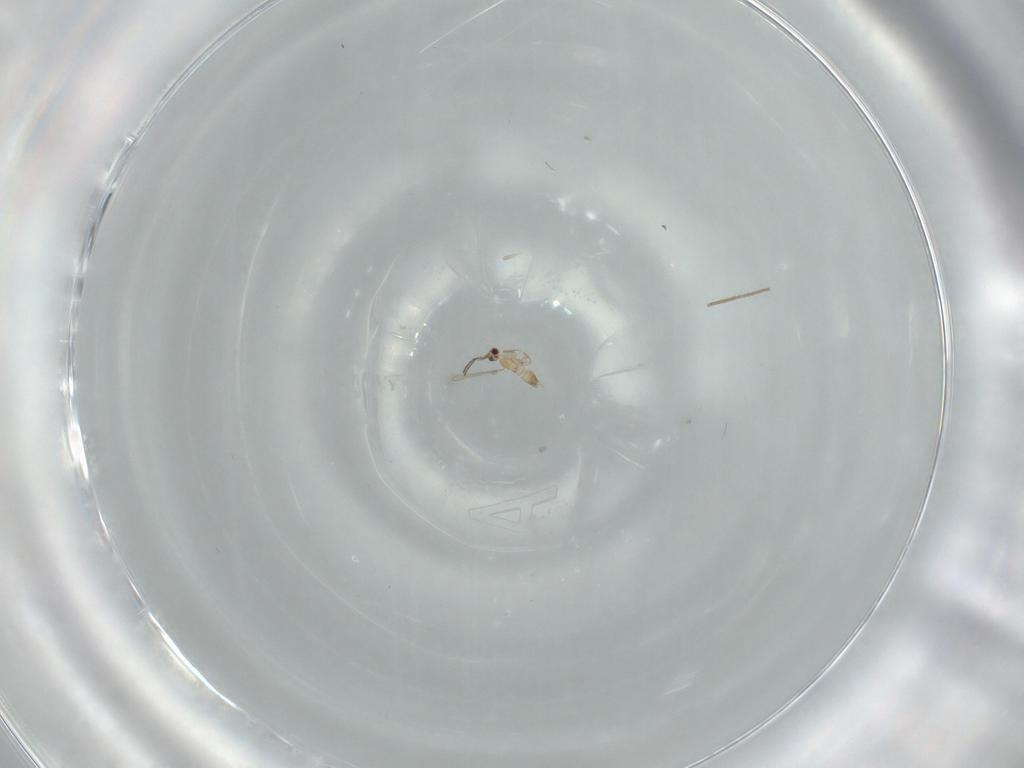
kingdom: Animalia
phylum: Arthropoda
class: Insecta
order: Hymenoptera
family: Mymaridae
